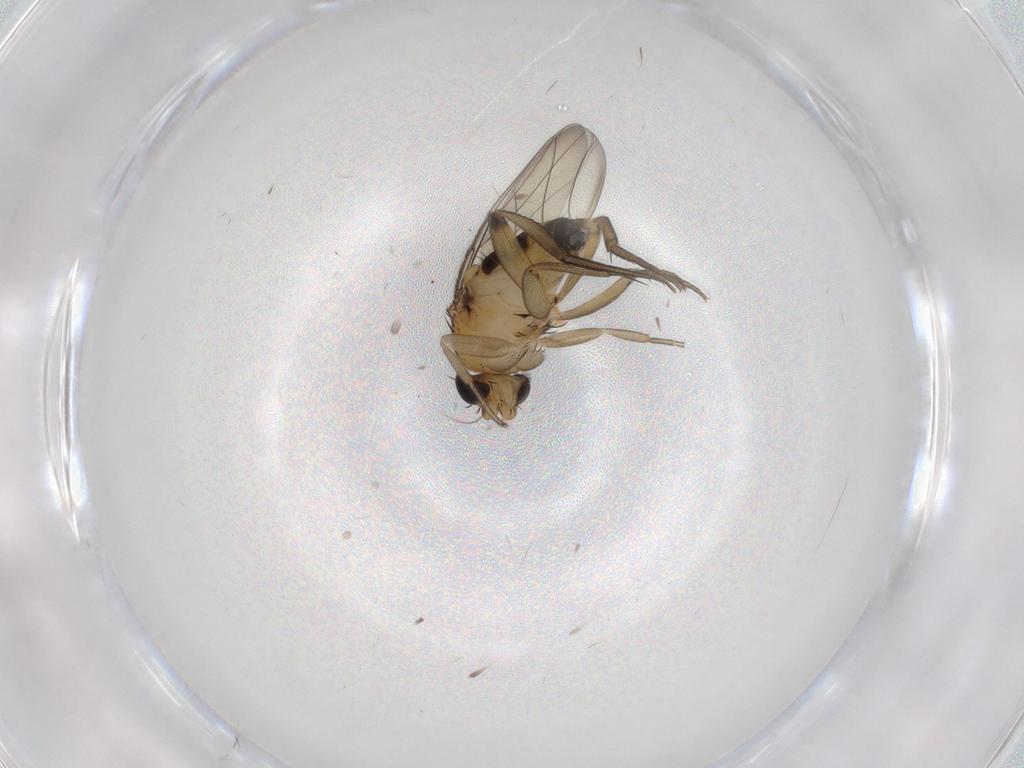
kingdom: Animalia
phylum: Arthropoda
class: Insecta
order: Diptera
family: Phoridae
